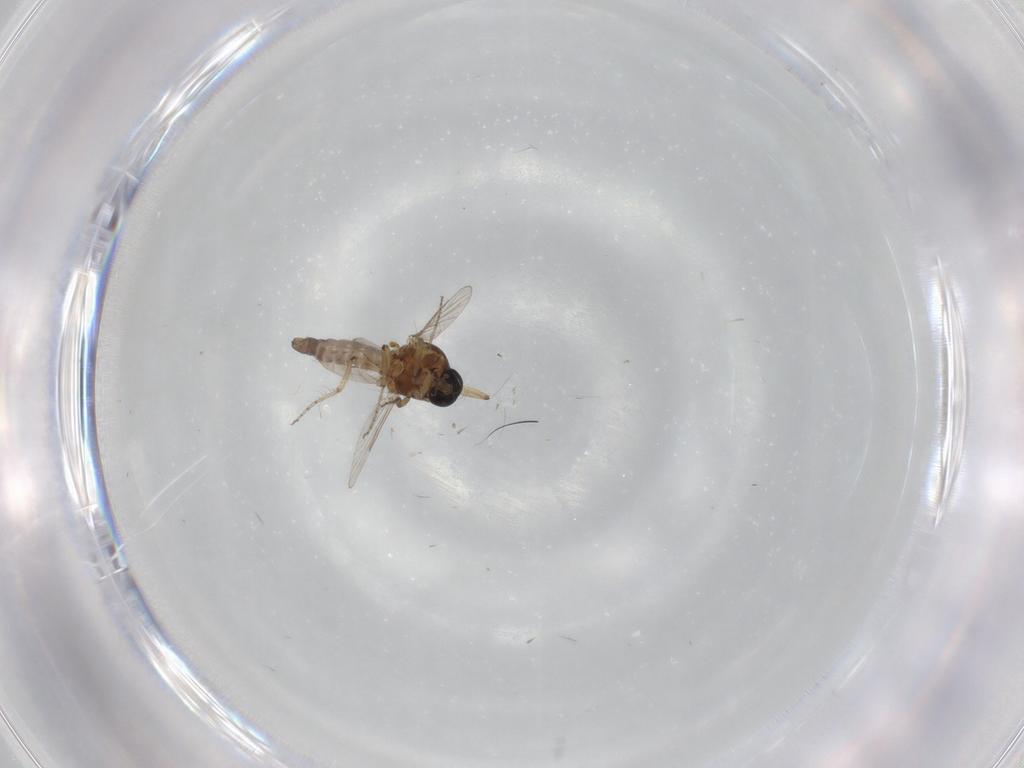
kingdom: Animalia
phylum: Arthropoda
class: Insecta
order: Diptera
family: Ceratopogonidae
